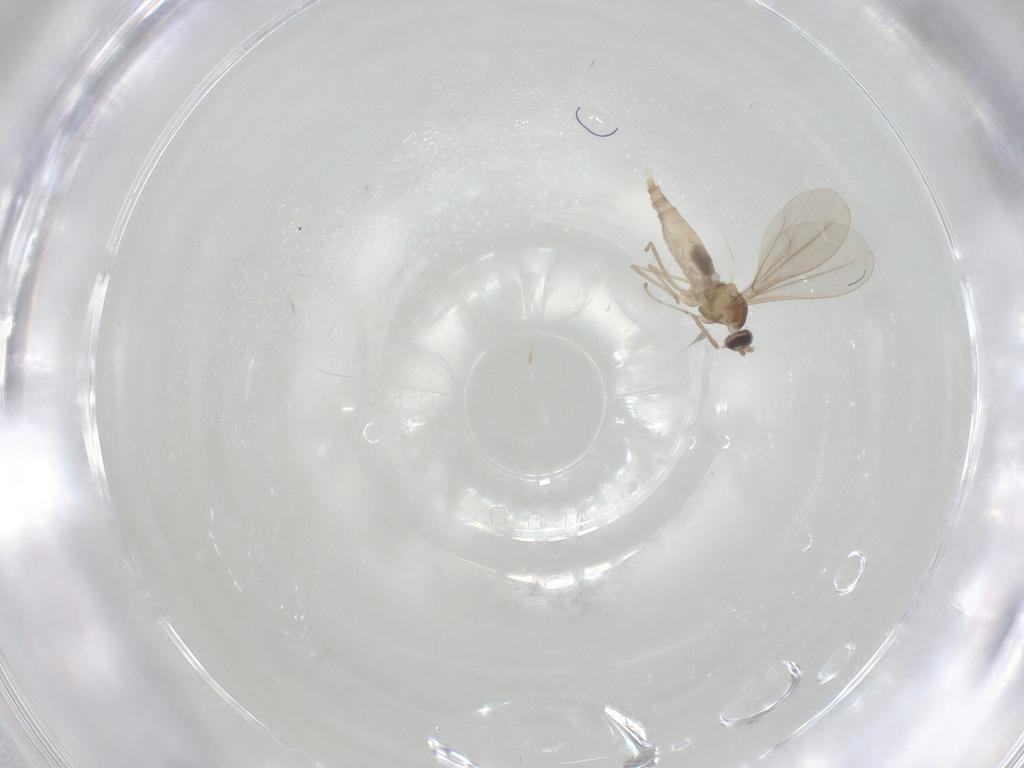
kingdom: Animalia
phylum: Arthropoda
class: Insecta
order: Diptera
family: Cecidomyiidae
